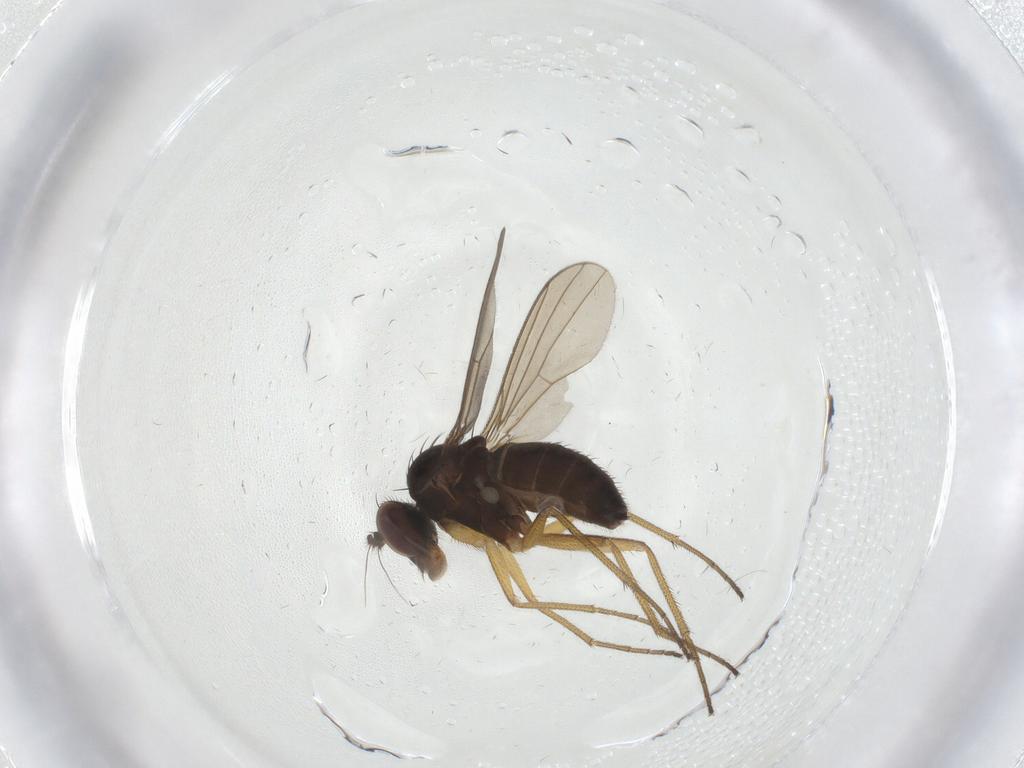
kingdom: Animalia
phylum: Arthropoda
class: Insecta
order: Diptera
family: Dolichopodidae
